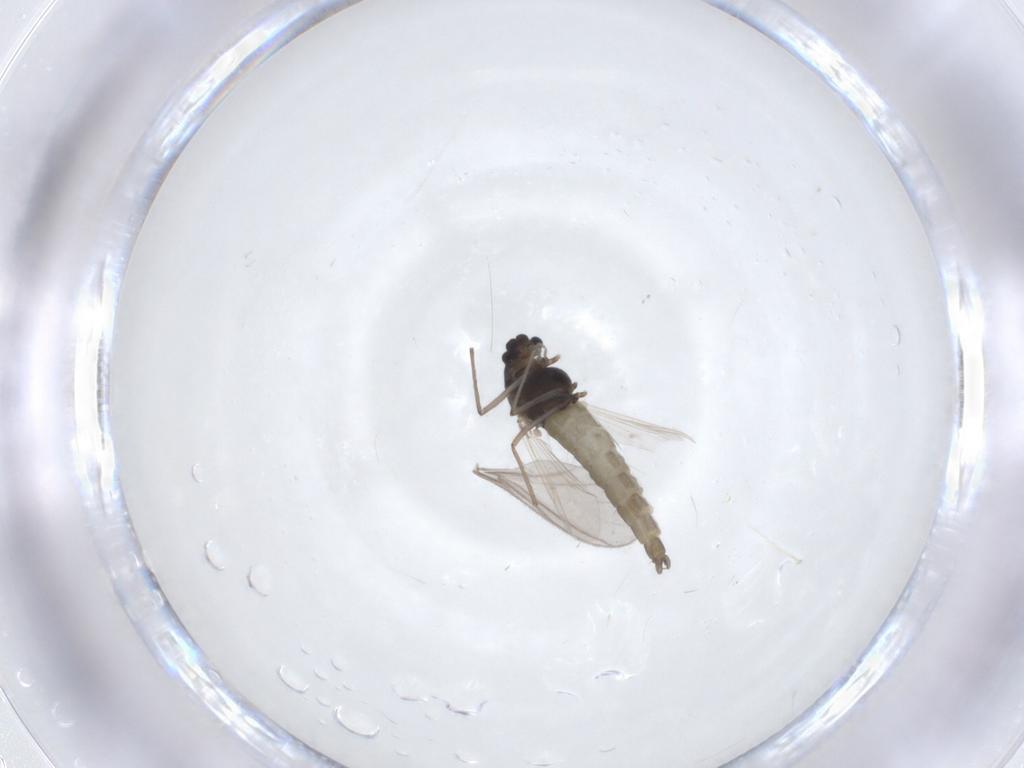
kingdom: Animalia
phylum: Arthropoda
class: Insecta
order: Diptera
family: Chironomidae
